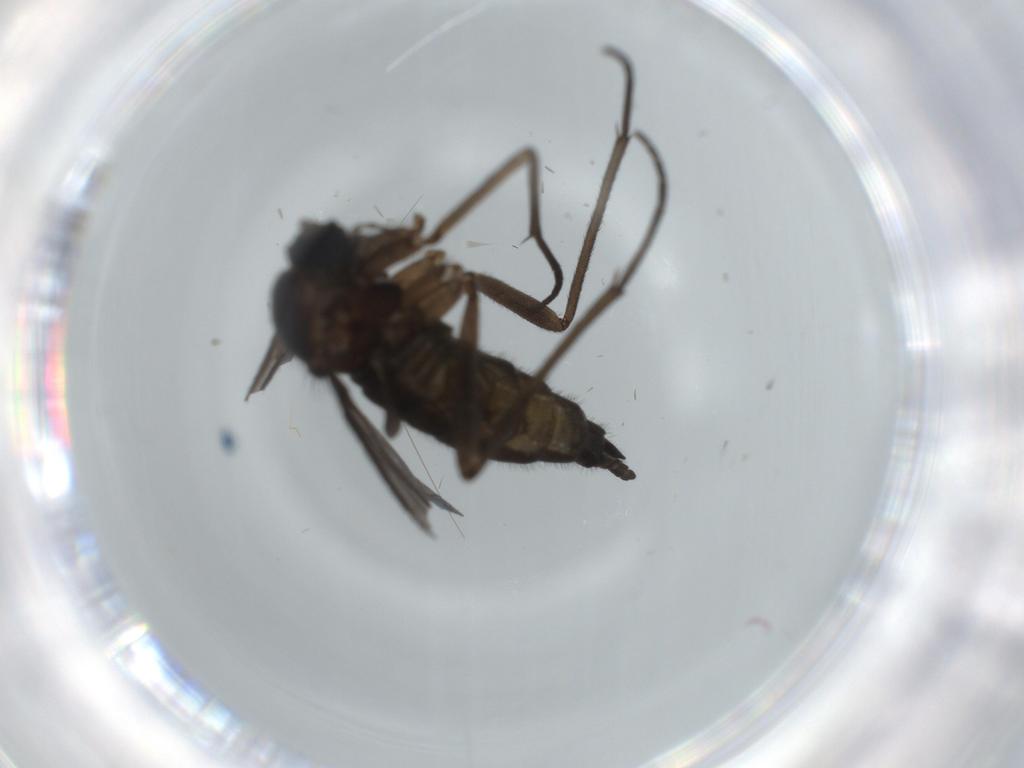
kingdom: Animalia
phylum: Arthropoda
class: Insecta
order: Diptera
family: Sciaridae
